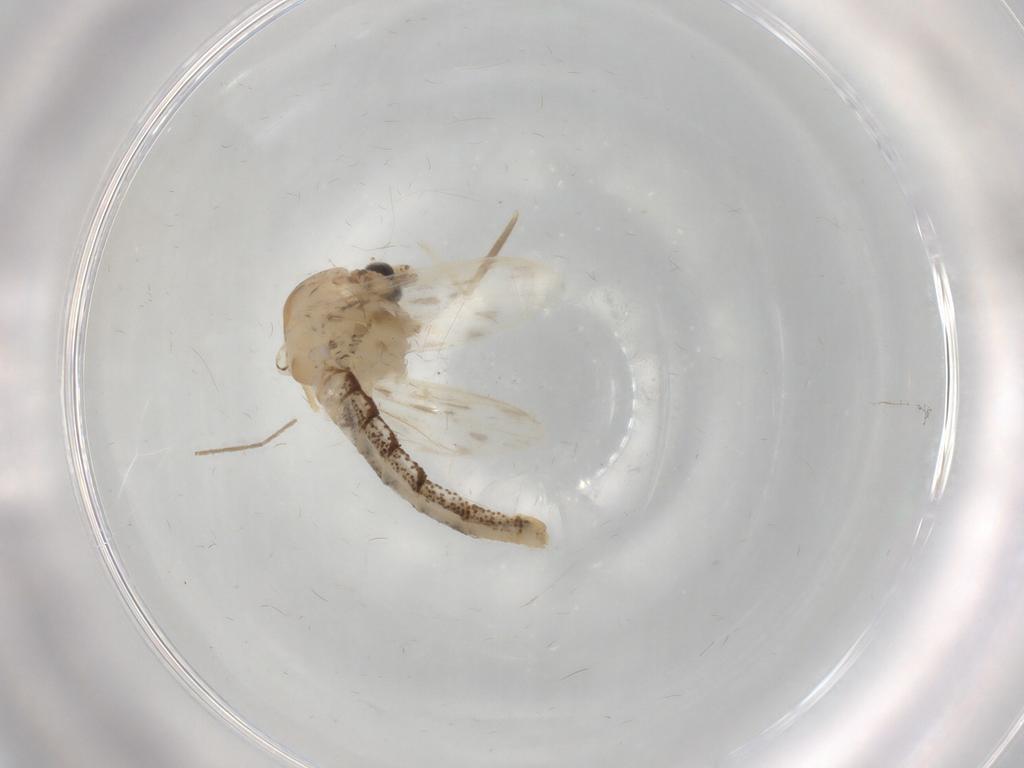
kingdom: Animalia
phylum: Arthropoda
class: Insecta
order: Diptera
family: Chaoboridae
